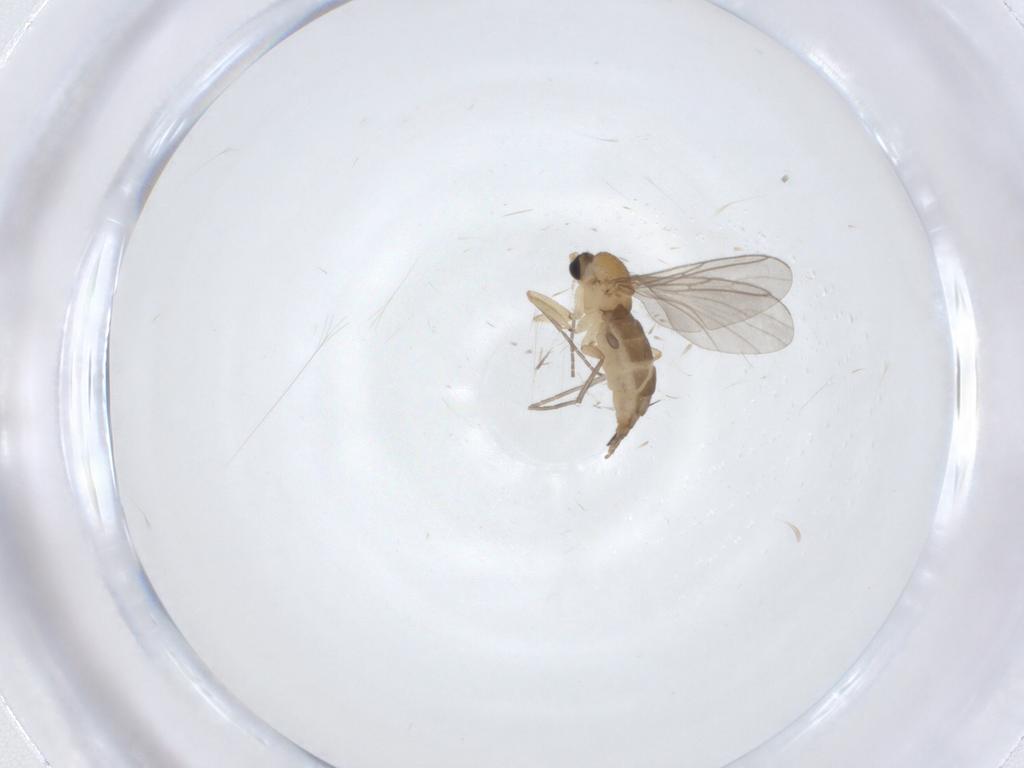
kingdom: Animalia
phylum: Arthropoda
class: Insecta
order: Diptera
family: Sciaridae
